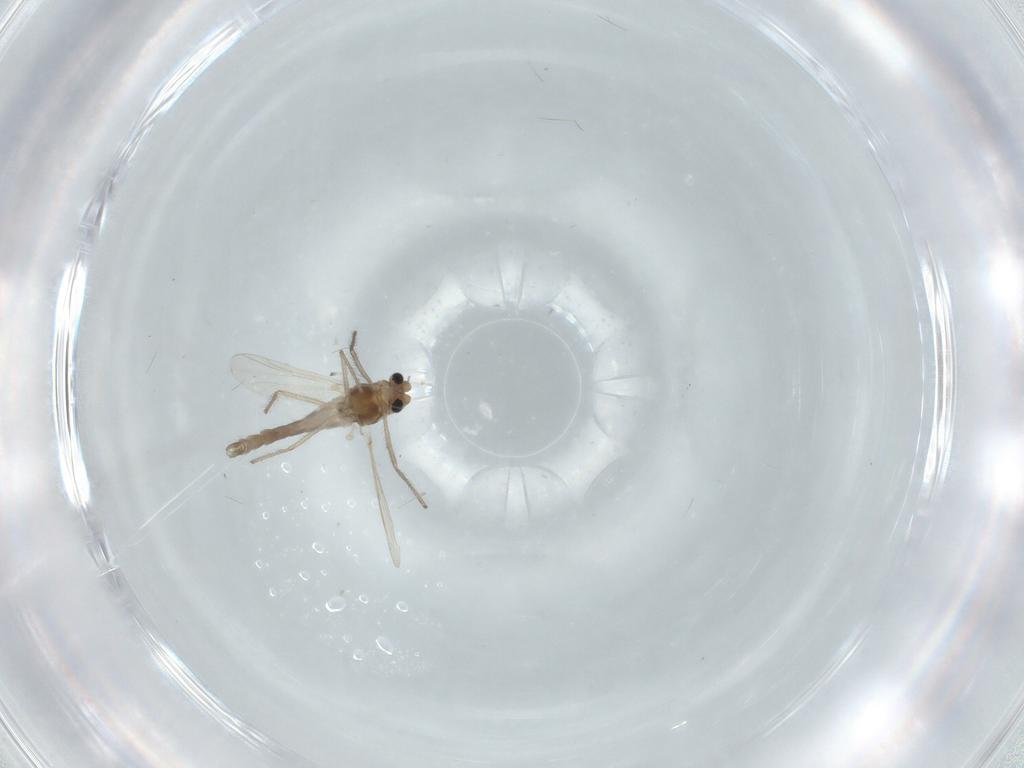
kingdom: Animalia
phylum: Arthropoda
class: Insecta
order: Diptera
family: Chironomidae
